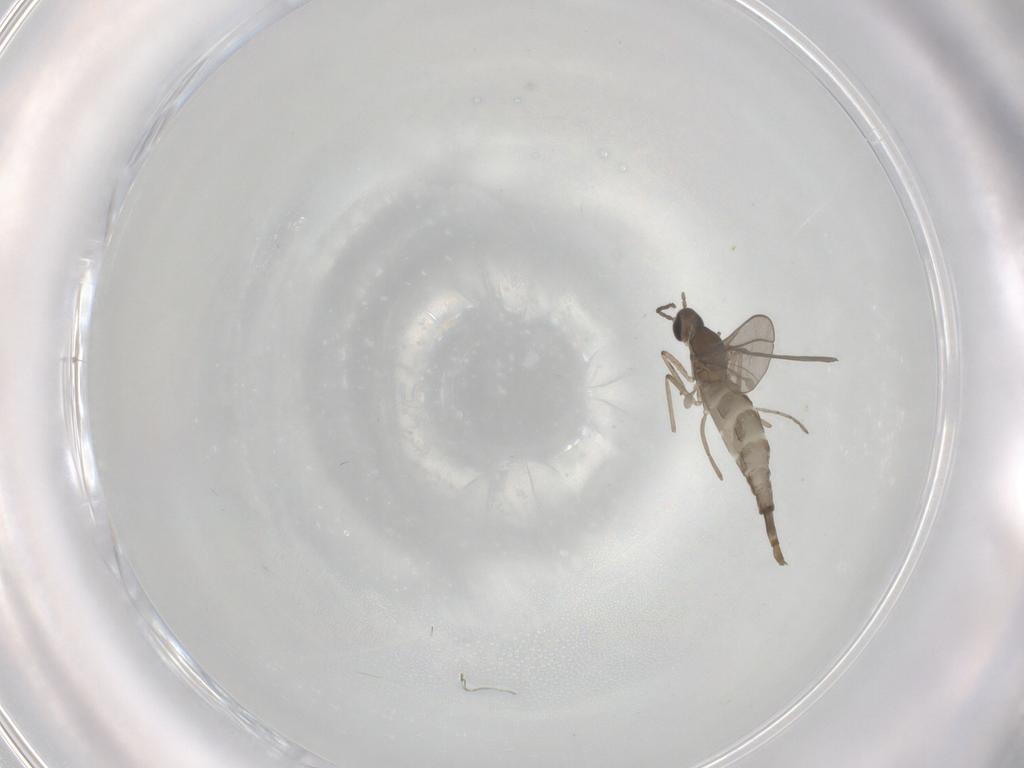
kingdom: Animalia
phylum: Arthropoda
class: Insecta
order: Diptera
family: Cecidomyiidae
